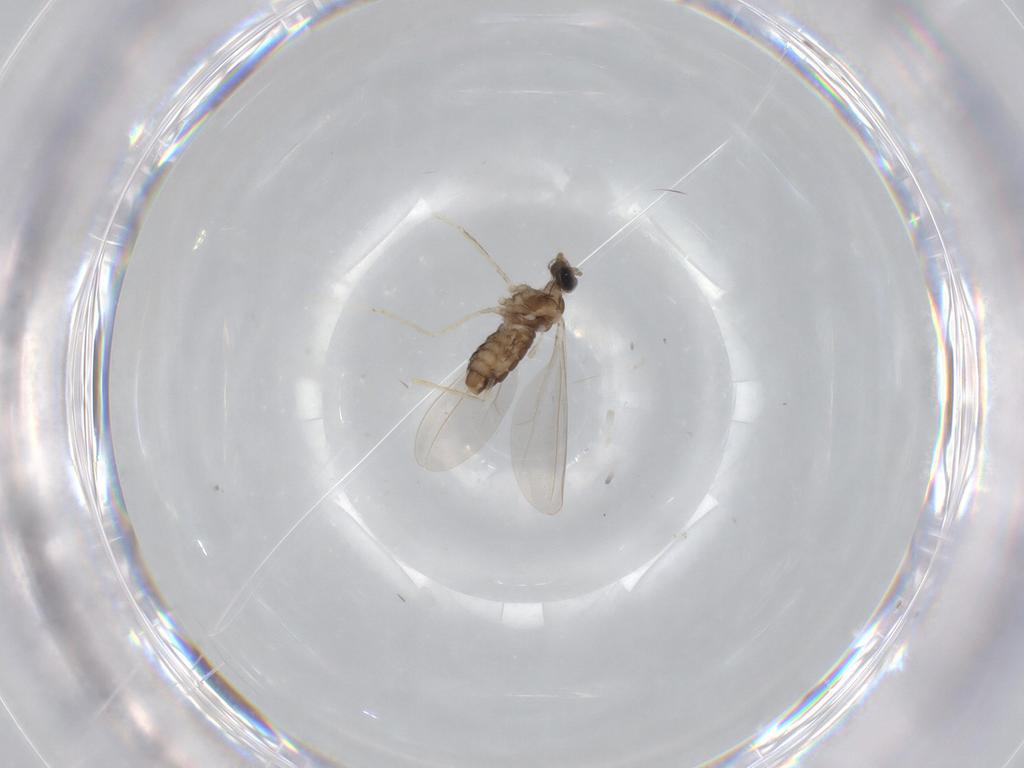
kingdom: Animalia
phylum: Arthropoda
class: Insecta
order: Diptera
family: Cecidomyiidae
